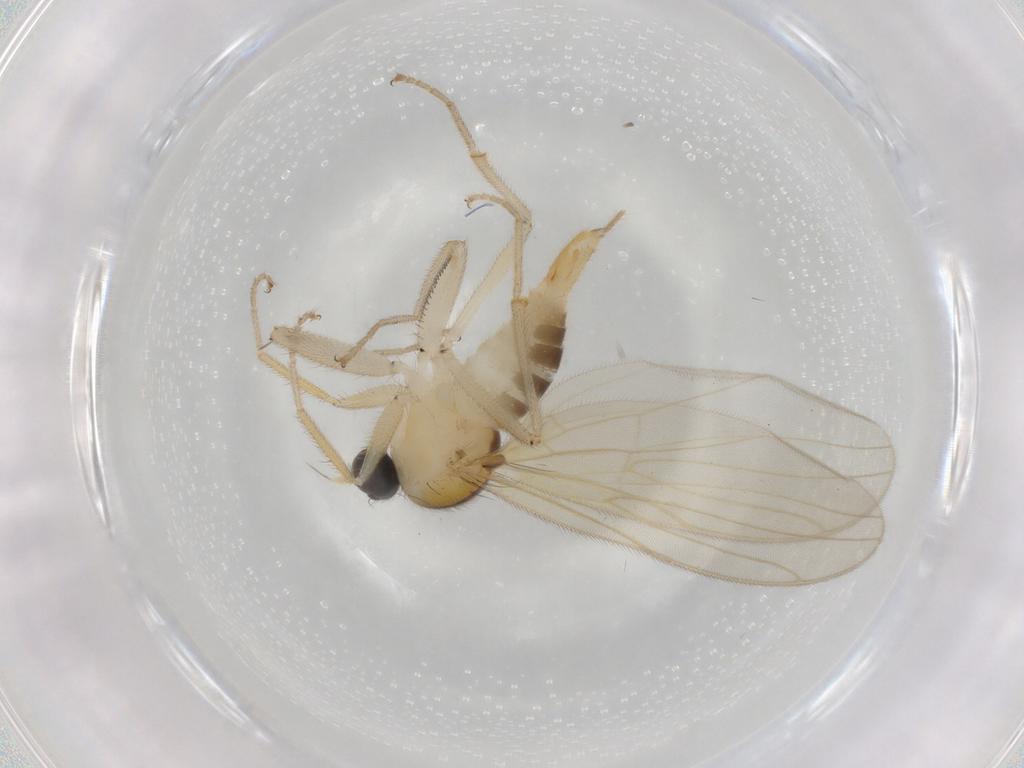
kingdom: Animalia
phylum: Arthropoda
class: Insecta
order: Diptera
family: Hybotidae
